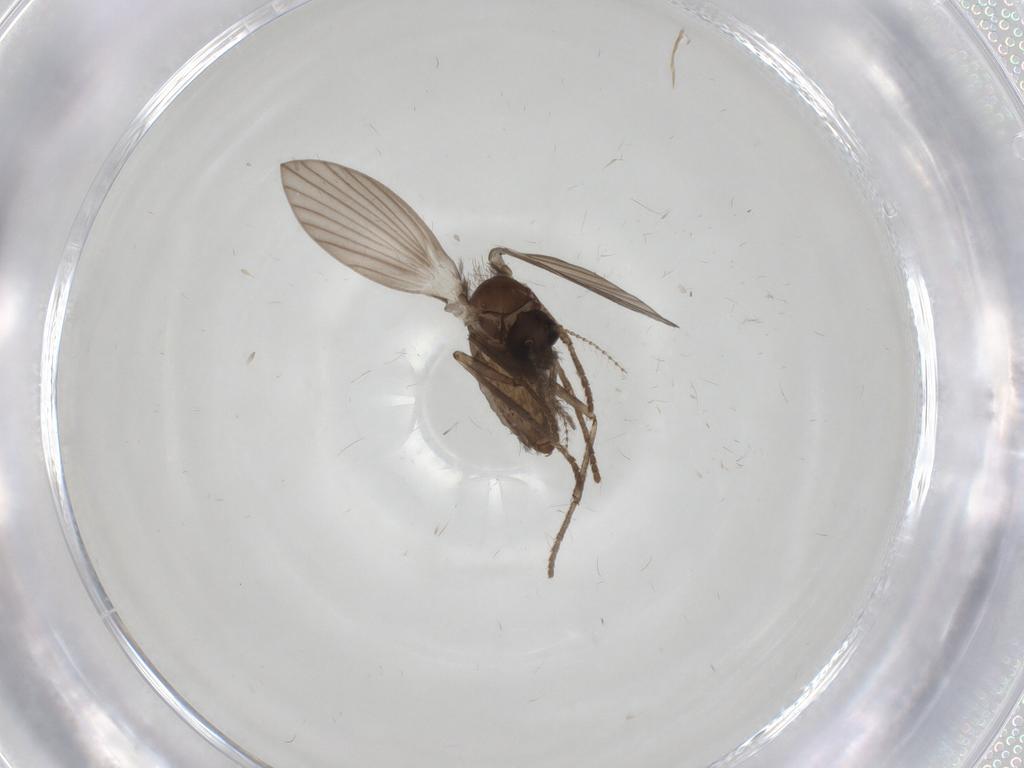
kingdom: Animalia
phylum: Arthropoda
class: Insecta
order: Diptera
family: Psychodidae
